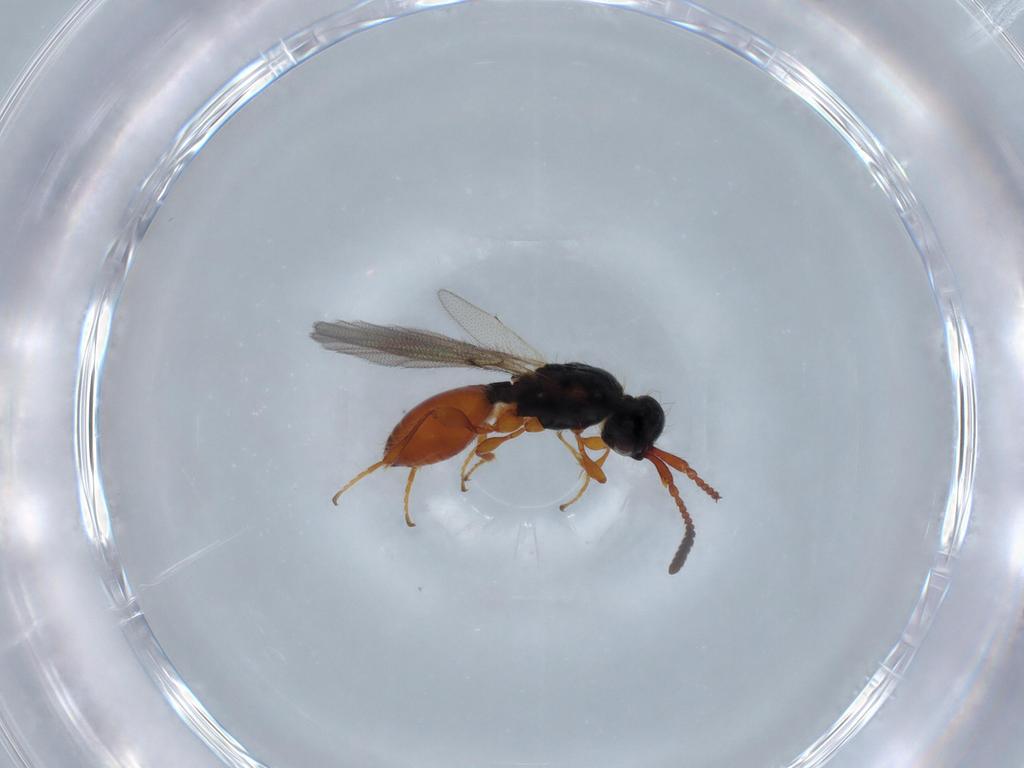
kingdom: Animalia
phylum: Arthropoda
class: Insecta
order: Hymenoptera
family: Diapriidae
